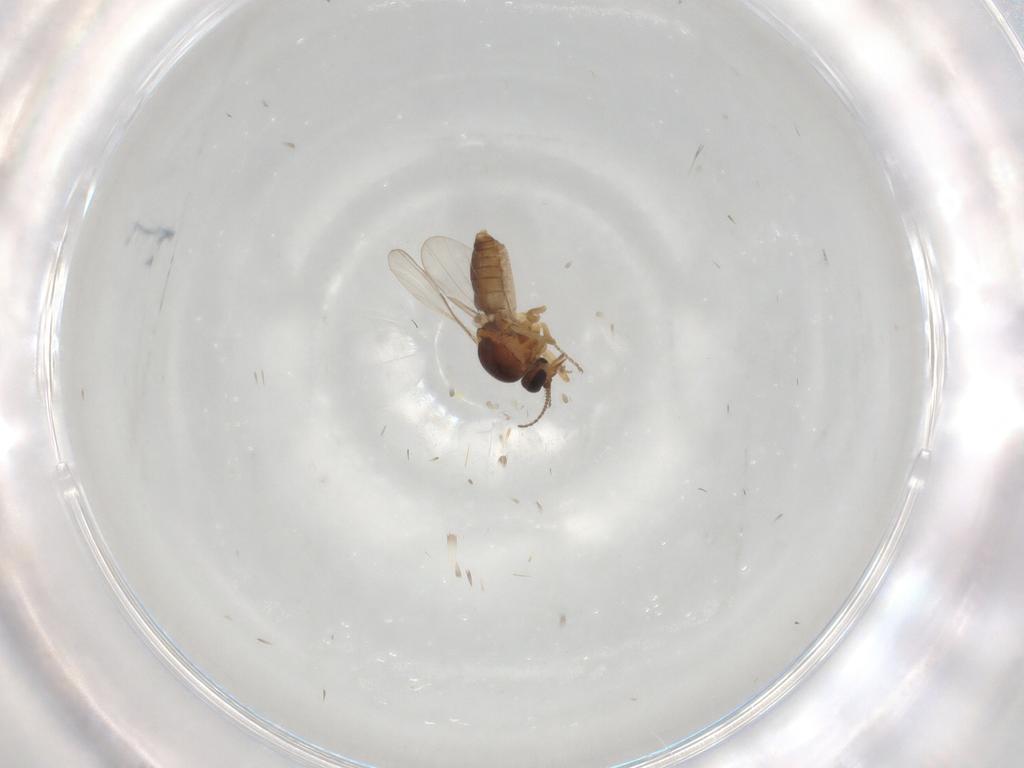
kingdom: Animalia
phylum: Arthropoda
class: Insecta
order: Diptera
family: Ceratopogonidae
